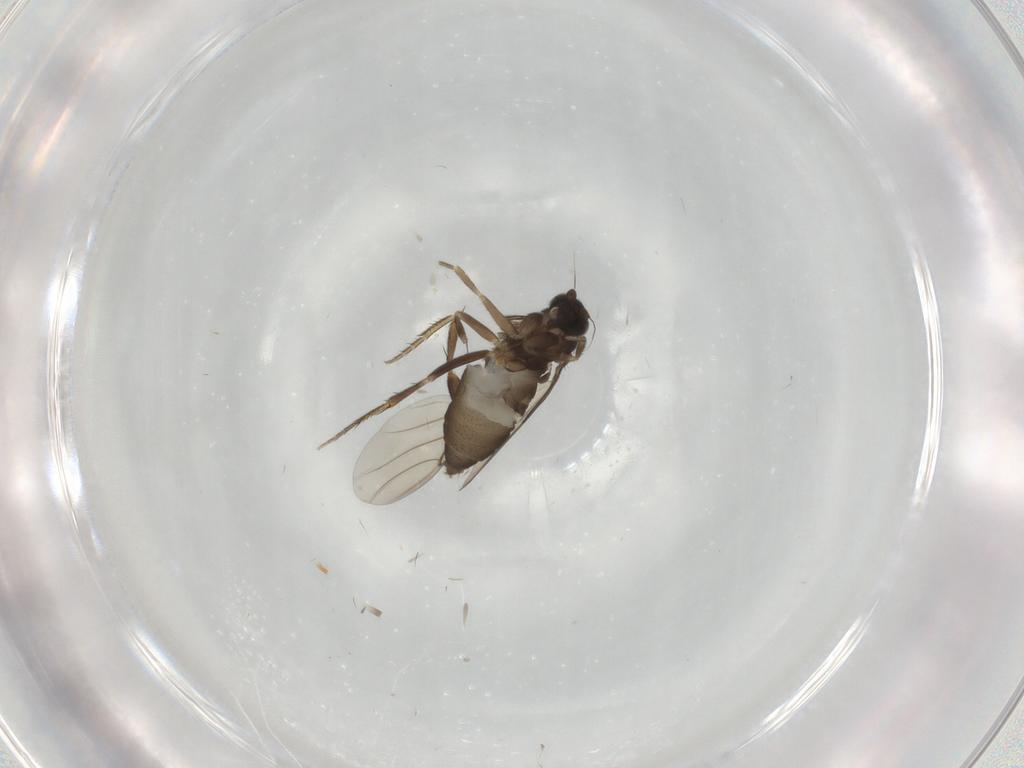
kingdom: Animalia
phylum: Arthropoda
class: Insecta
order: Diptera
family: Phoridae
